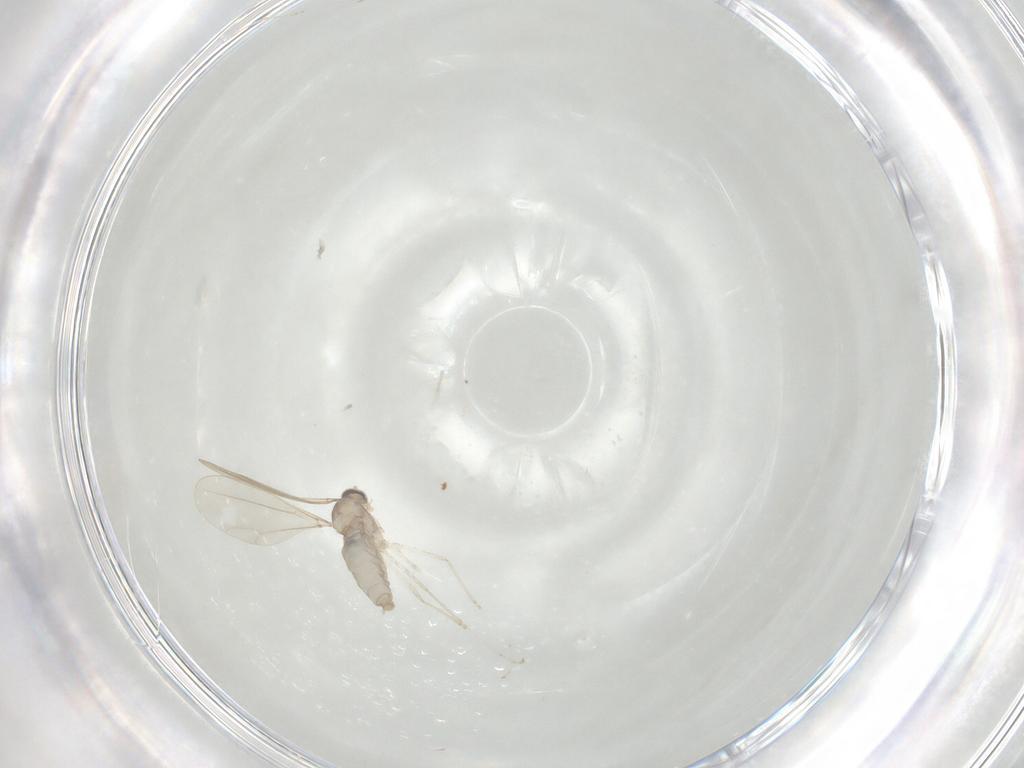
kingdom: Animalia
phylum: Arthropoda
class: Insecta
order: Diptera
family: Cecidomyiidae
